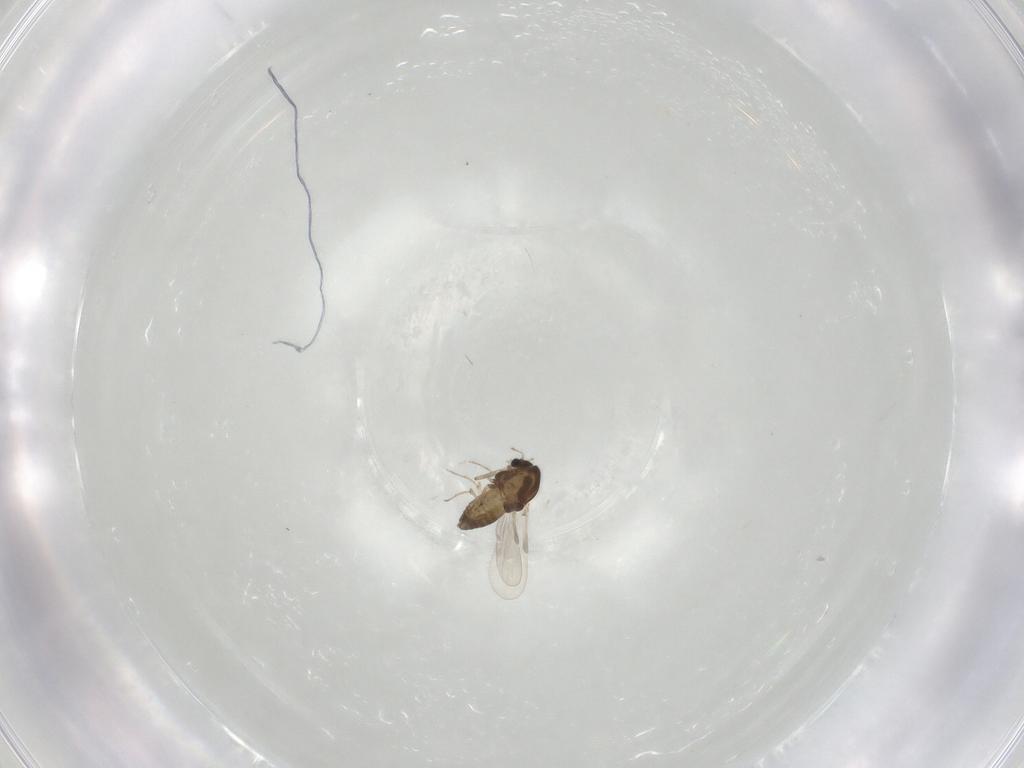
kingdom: Animalia
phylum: Arthropoda
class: Insecta
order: Diptera
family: Chironomidae
